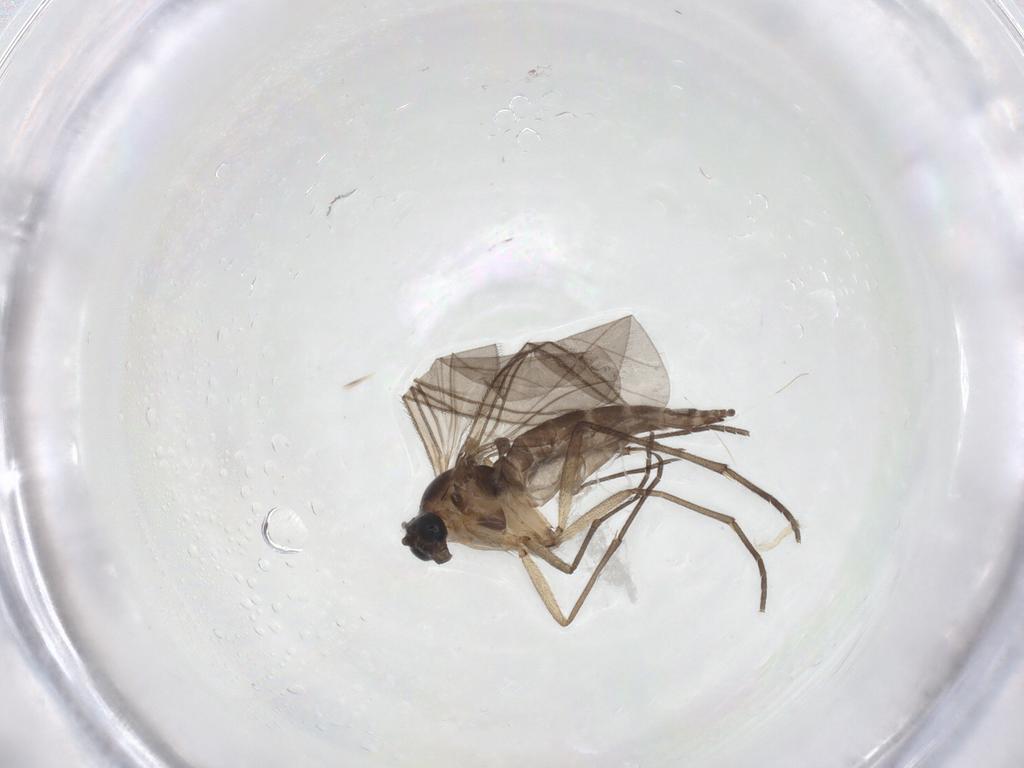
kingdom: Animalia
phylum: Arthropoda
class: Insecta
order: Diptera
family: Sciaridae
